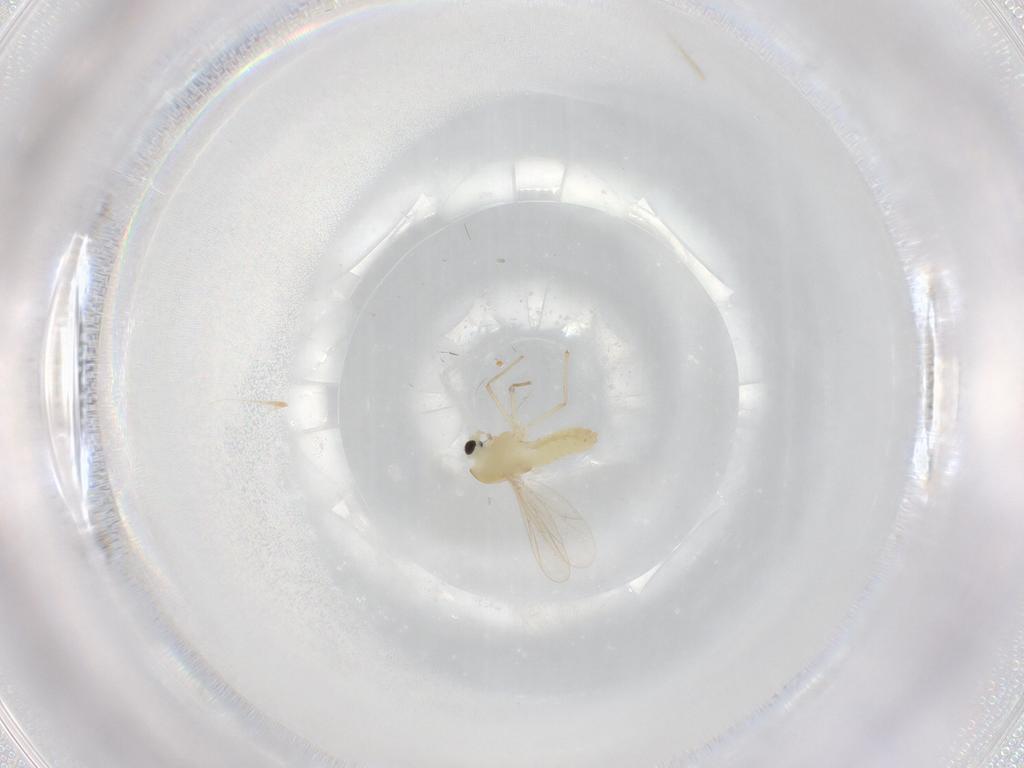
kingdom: Animalia
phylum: Arthropoda
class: Insecta
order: Diptera
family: Chironomidae
